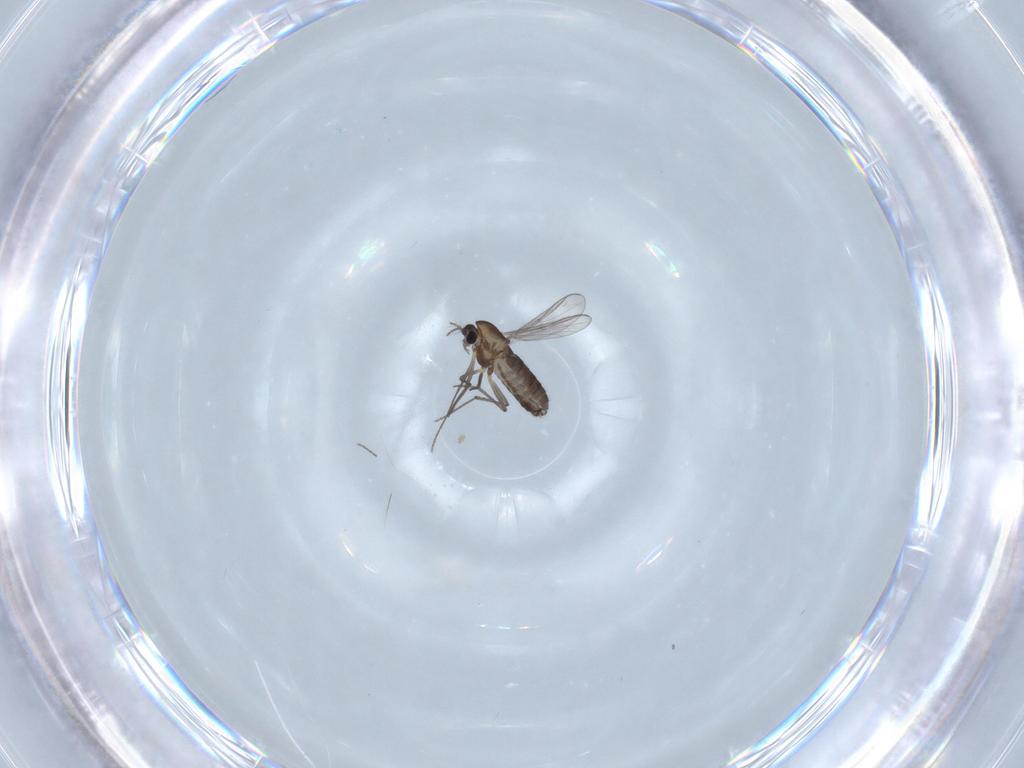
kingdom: Animalia
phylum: Arthropoda
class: Insecta
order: Diptera
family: Chironomidae
